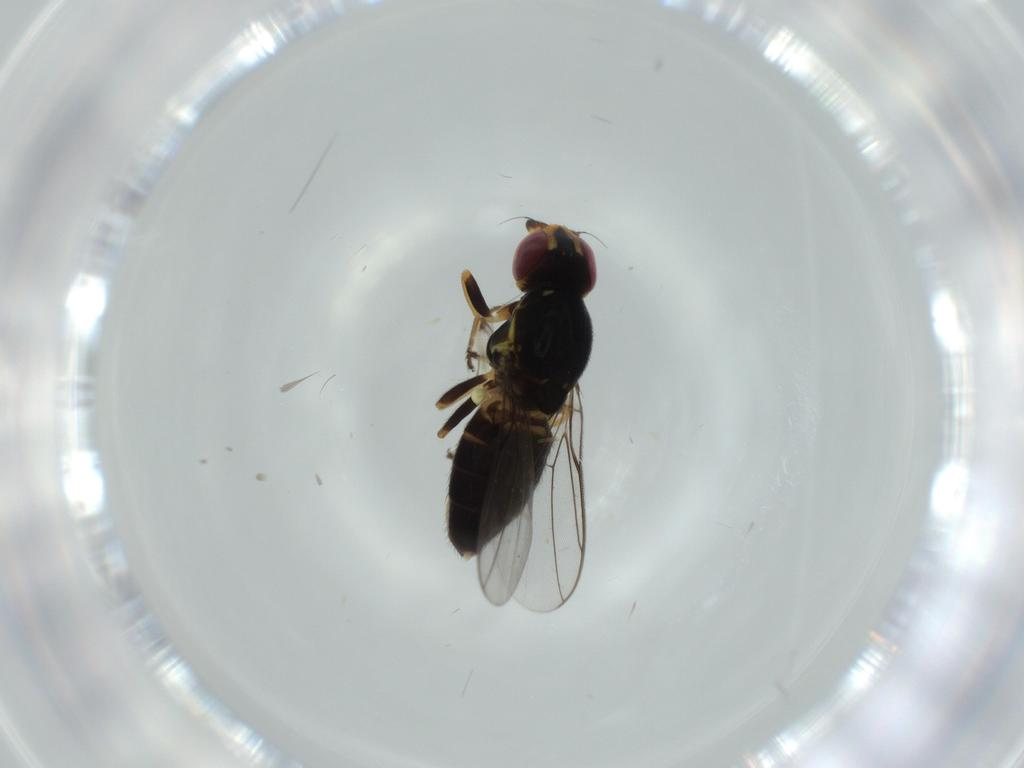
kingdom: Animalia
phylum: Arthropoda
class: Insecta
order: Diptera
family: Chloropidae
